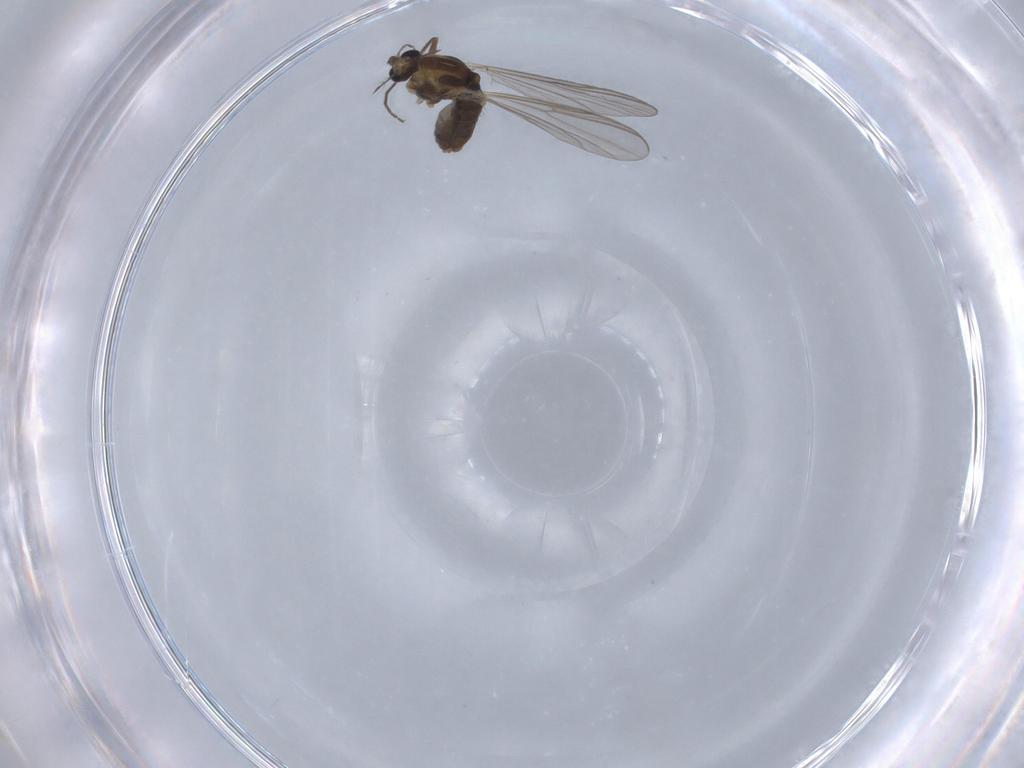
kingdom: Animalia
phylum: Arthropoda
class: Insecta
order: Diptera
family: Chironomidae
